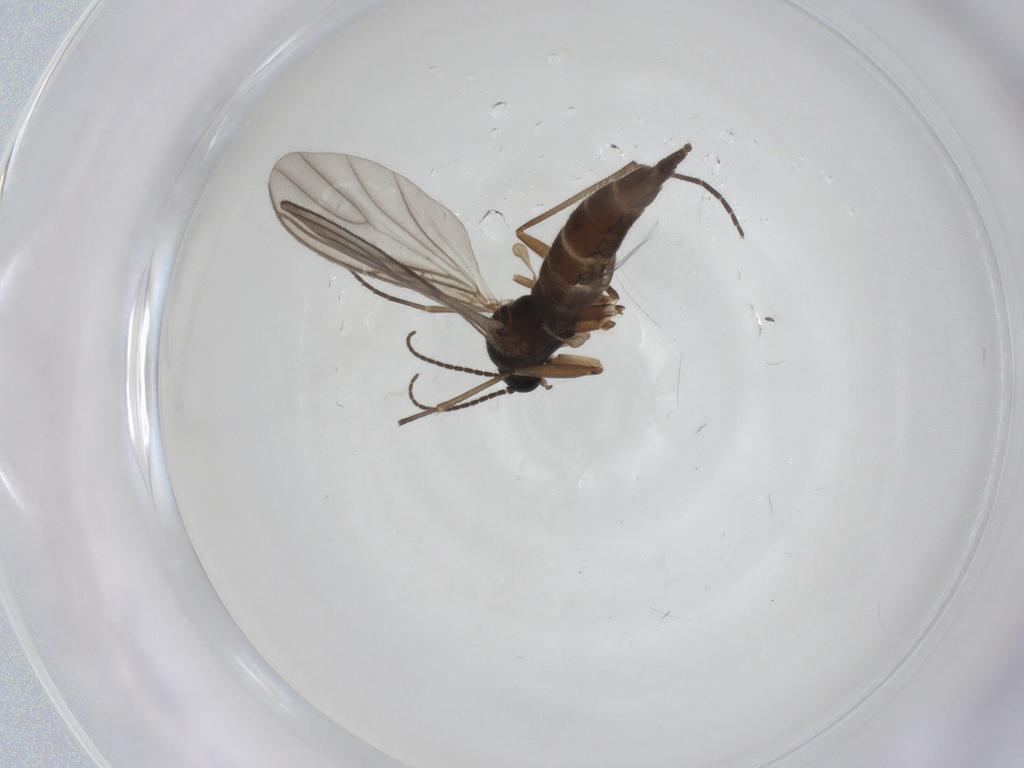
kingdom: Animalia
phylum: Arthropoda
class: Insecta
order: Diptera
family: Sciaridae
